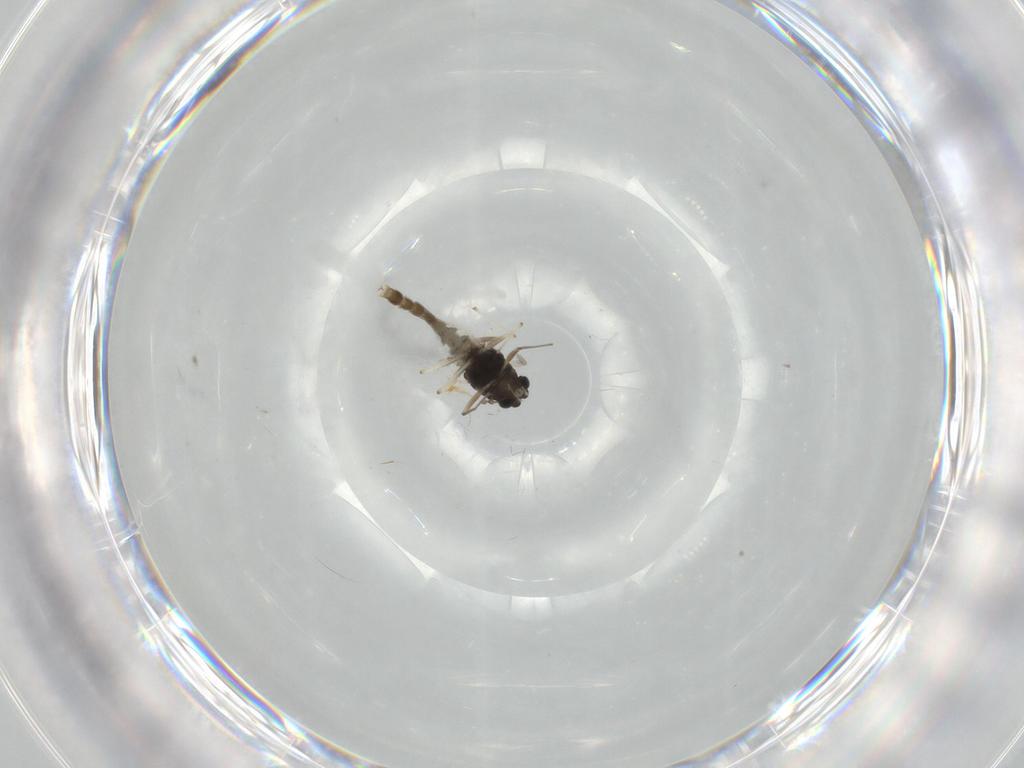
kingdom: Animalia
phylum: Arthropoda
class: Insecta
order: Diptera
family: Chironomidae
